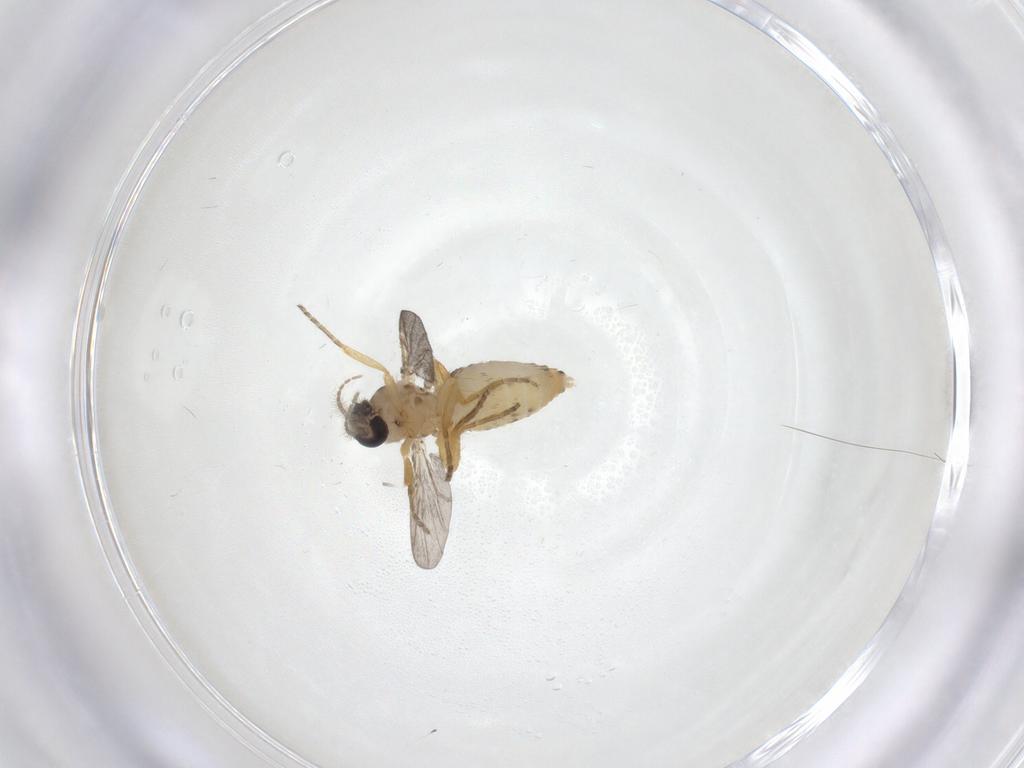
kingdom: Animalia
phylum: Arthropoda
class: Insecta
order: Diptera
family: Ceratopogonidae
